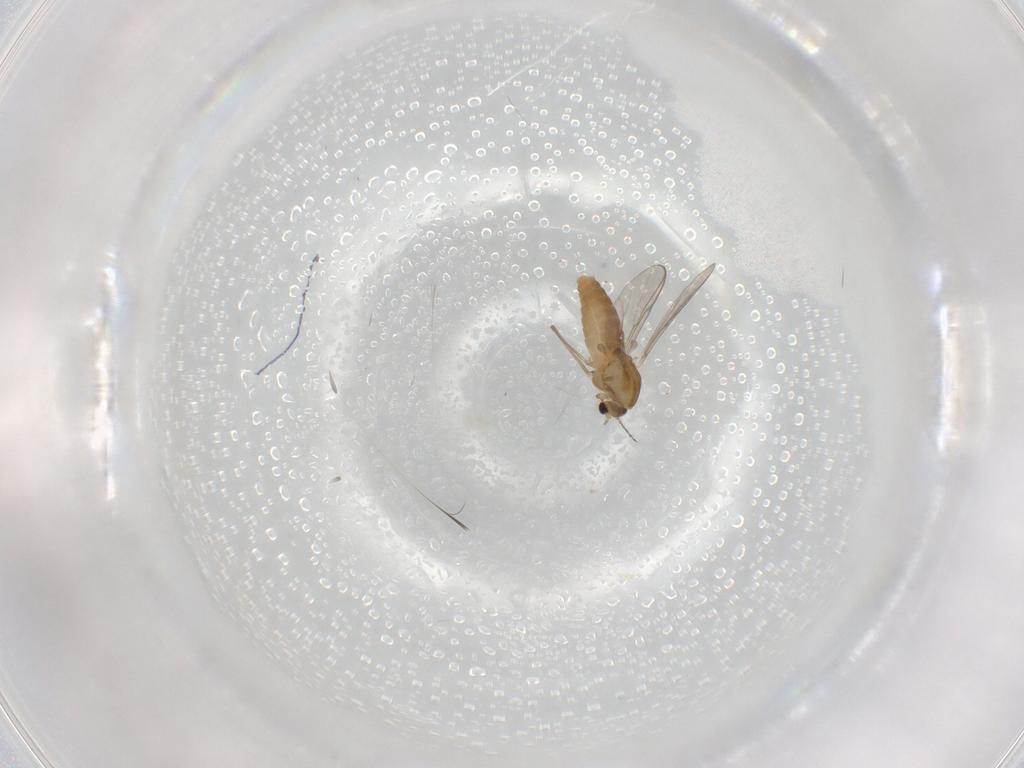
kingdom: Animalia
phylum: Arthropoda
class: Insecta
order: Diptera
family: Chironomidae
